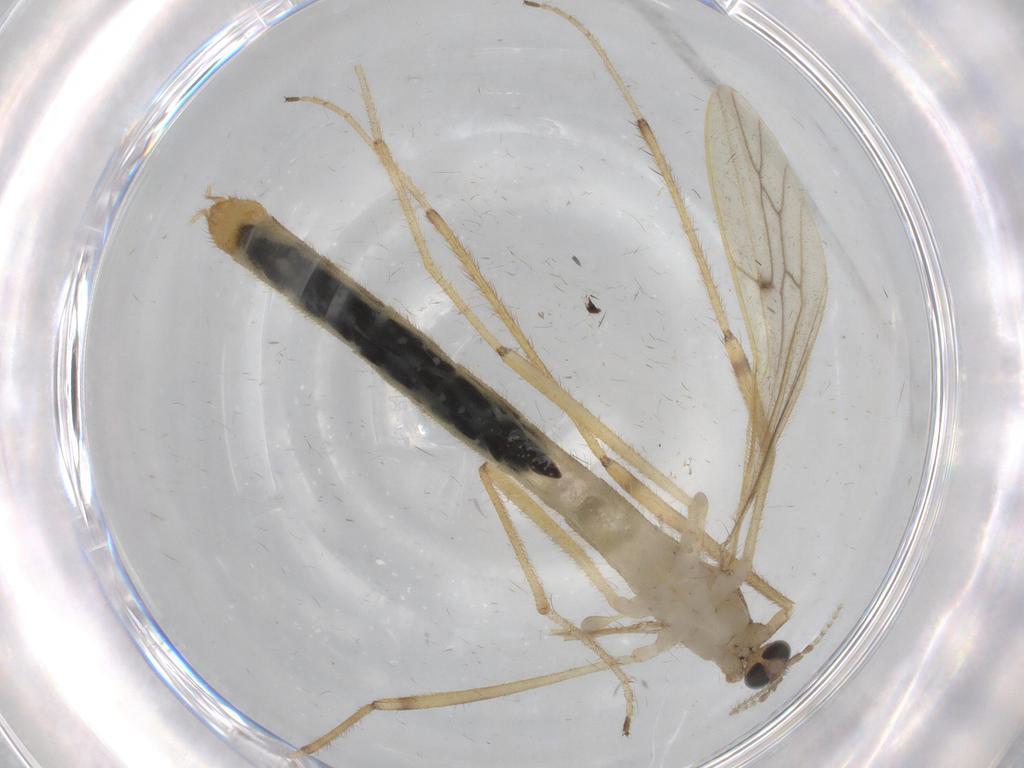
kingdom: Animalia
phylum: Arthropoda
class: Insecta
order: Diptera
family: Cecidomyiidae
